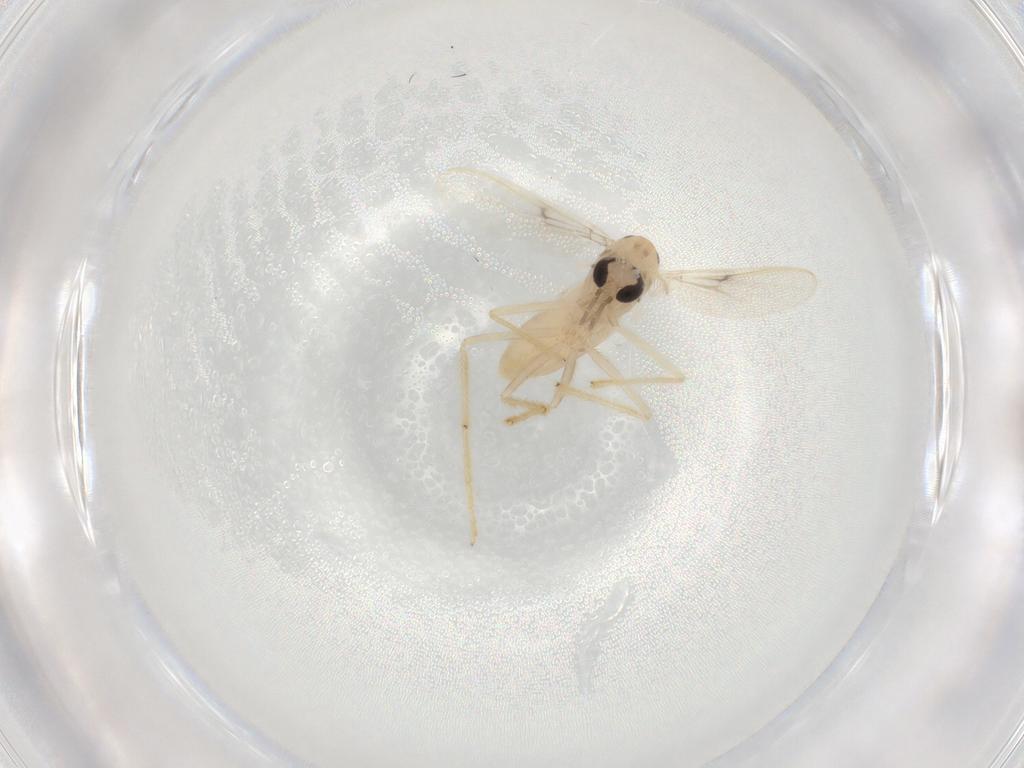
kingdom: Animalia
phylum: Arthropoda
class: Insecta
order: Diptera
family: Chironomidae
